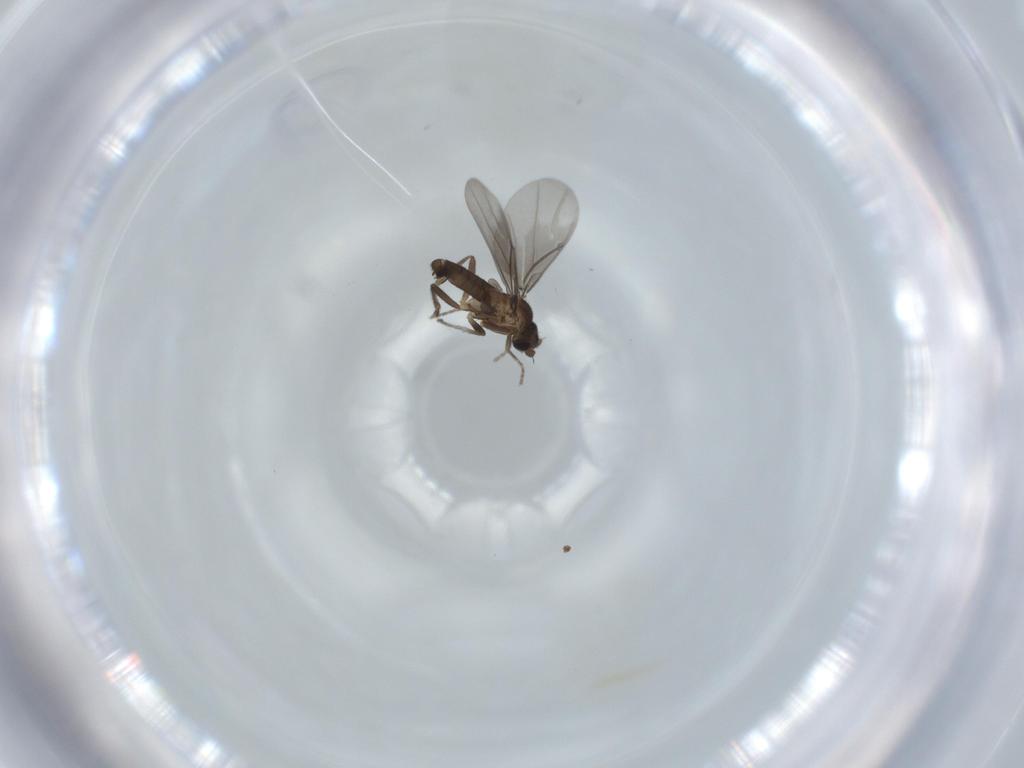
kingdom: Animalia
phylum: Arthropoda
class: Insecta
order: Diptera
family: Phoridae
